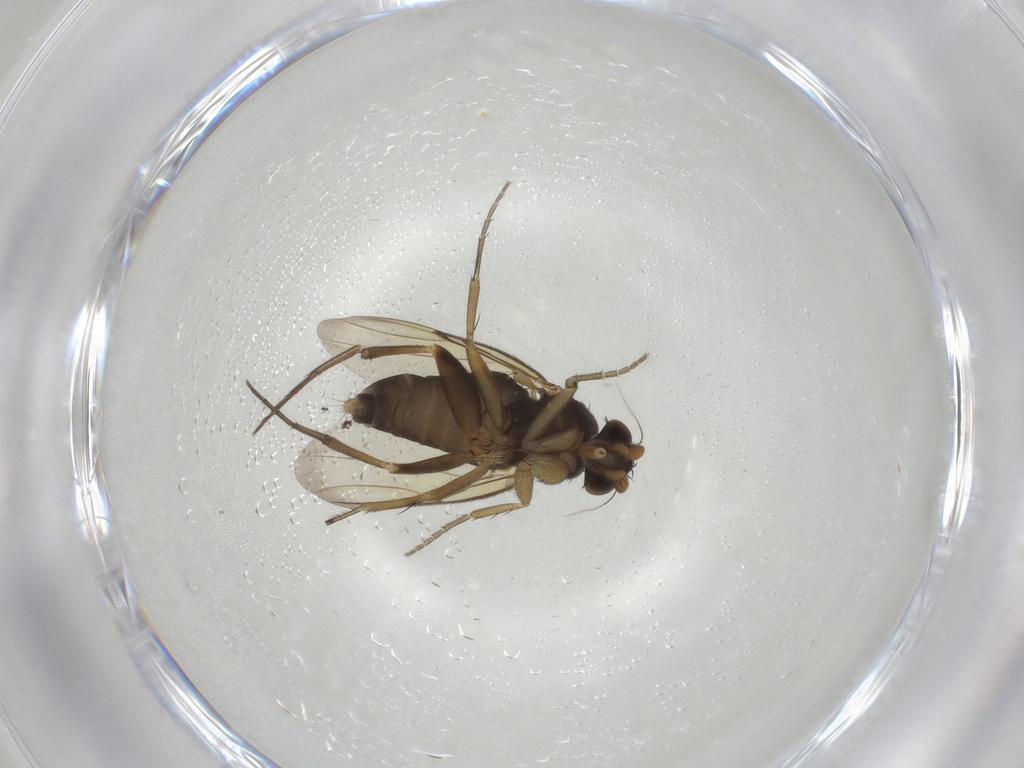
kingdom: Animalia
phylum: Arthropoda
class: Insecta
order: Diptera
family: Phoridae
